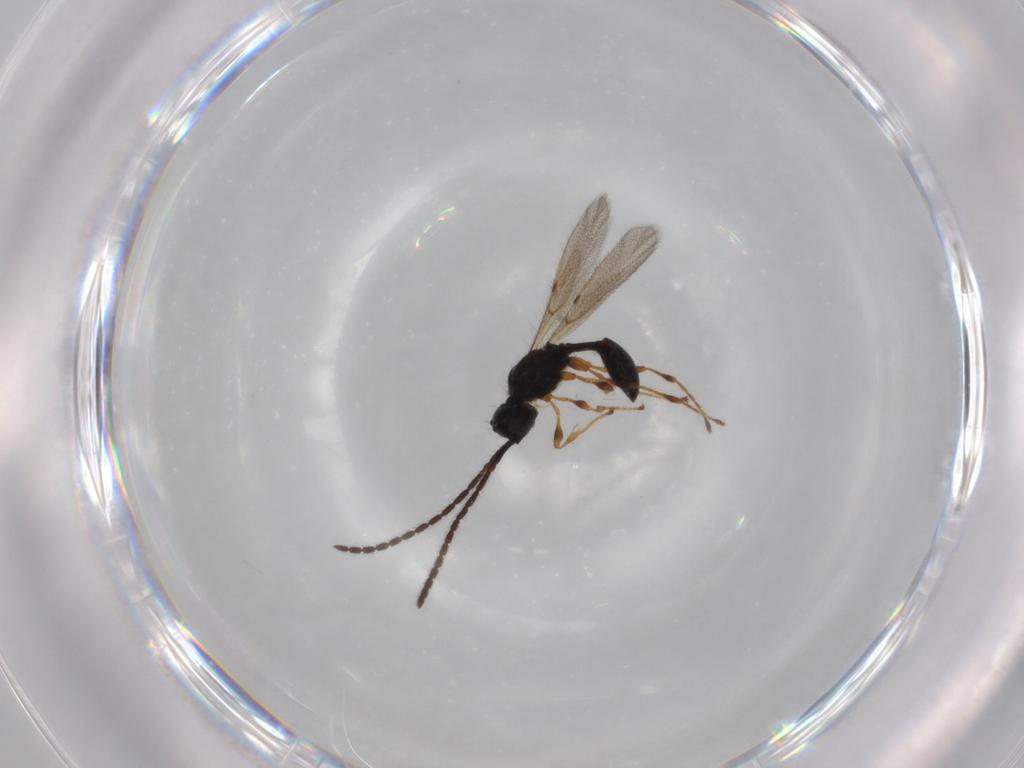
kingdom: Animalia
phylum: Arthropoda
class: Insecta
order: Hymenoptera
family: Diapriidae
